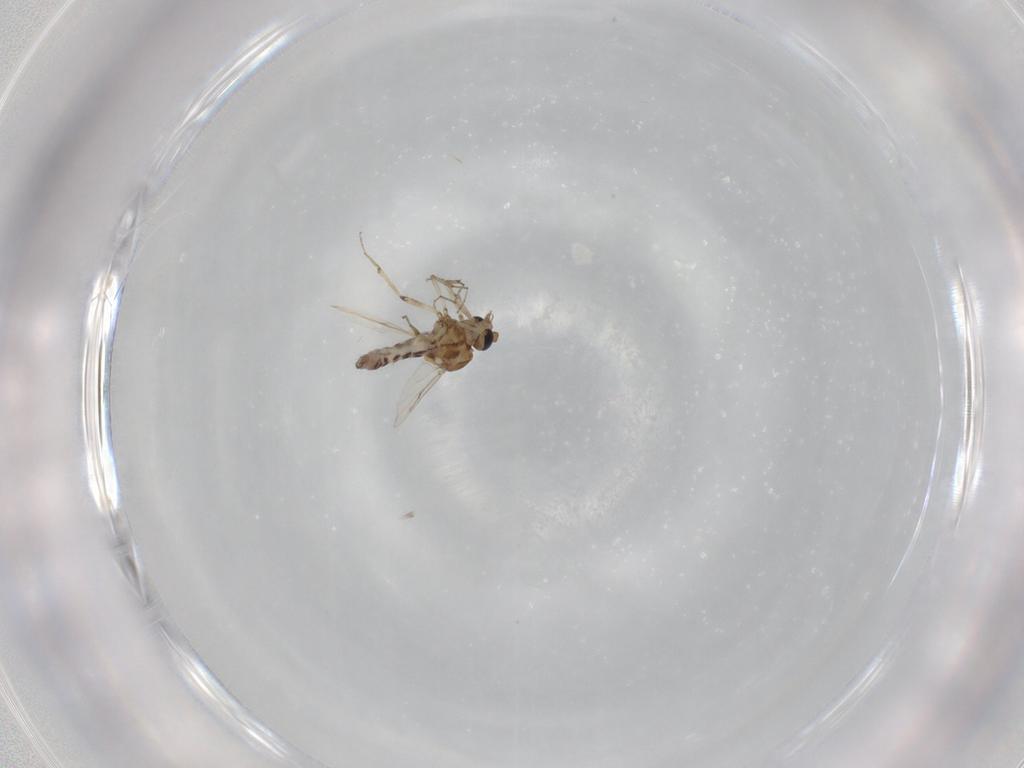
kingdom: Animalia
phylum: Arthropoda
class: Insecta
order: Diptera
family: Ceratopogonidae
